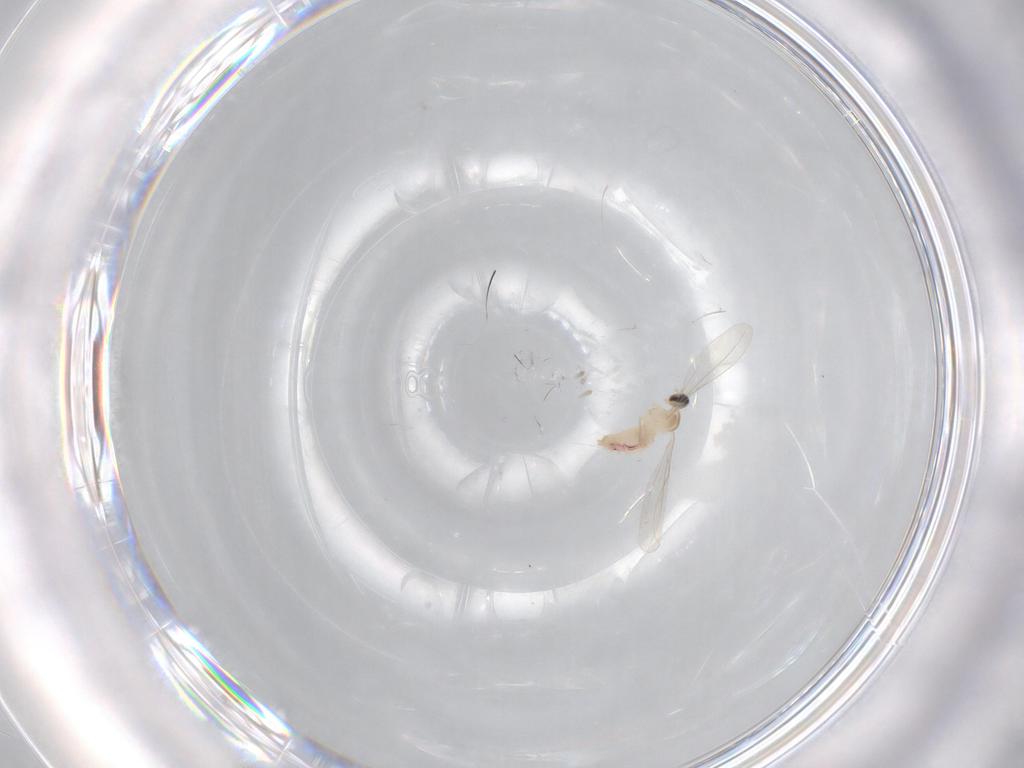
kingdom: Animalia
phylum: Arthropoda
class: Insecta
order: Diptera
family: Cecidomyiidae
